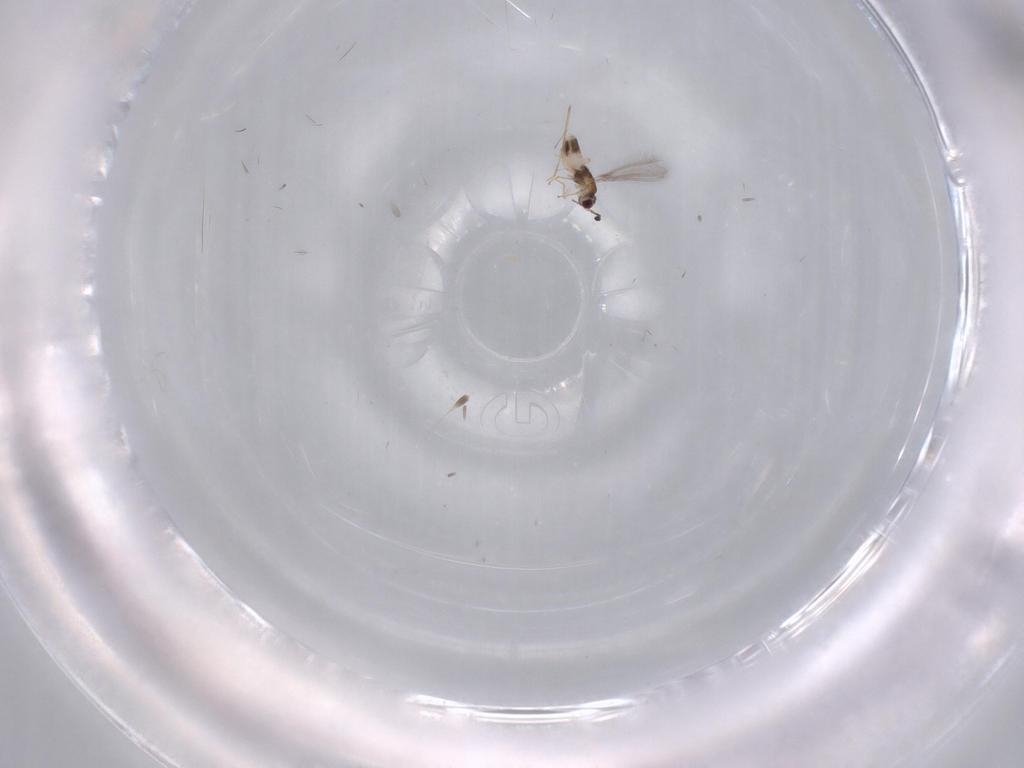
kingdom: Animalia
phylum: Arthropoda
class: Insecta
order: Hymenoptera
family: Mymaridae
